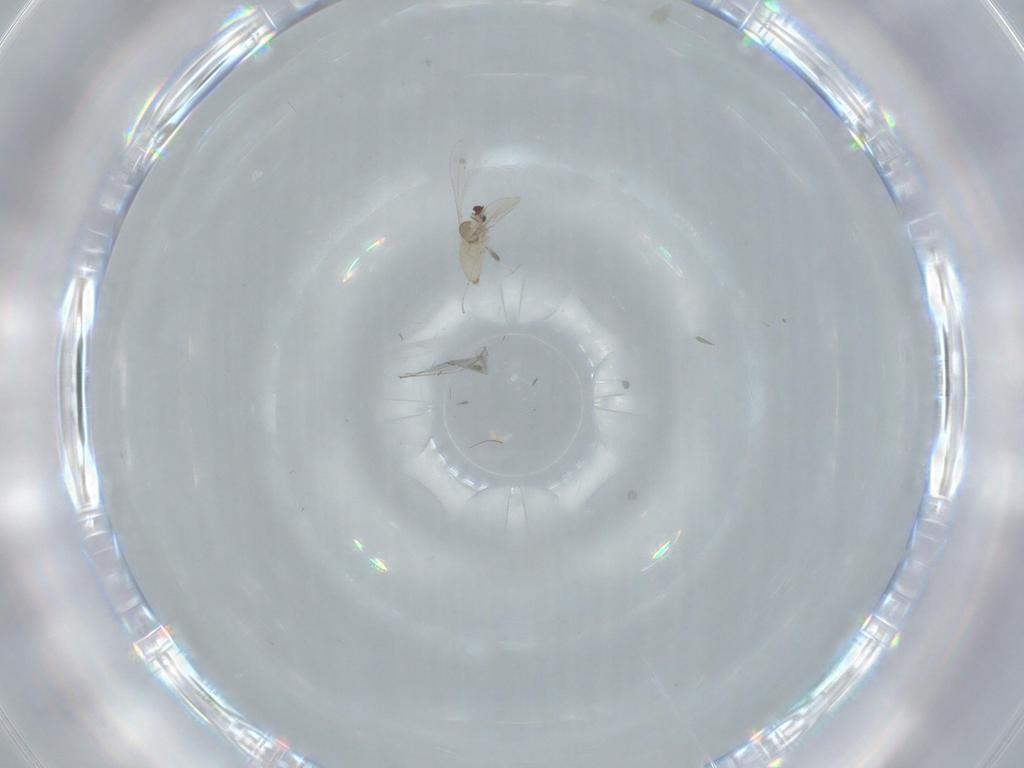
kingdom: Animalia
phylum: Arthropoda
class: Insecta
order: Diptera
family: Cecidomyiidae
